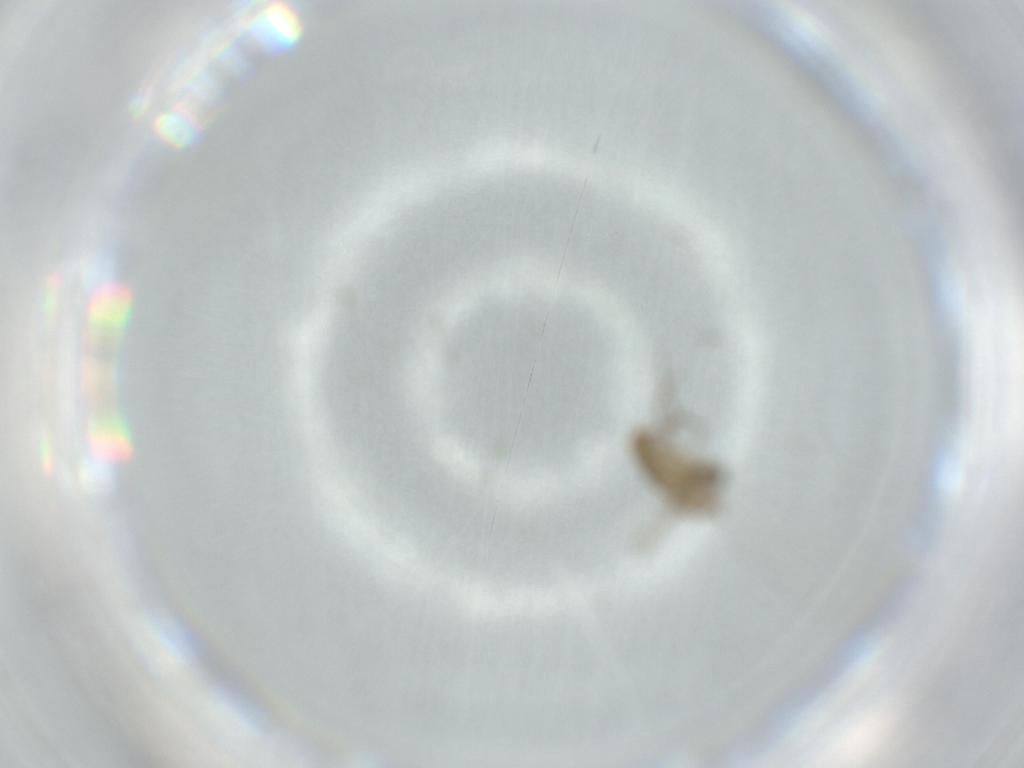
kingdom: Animalia
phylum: Arthropoda
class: Insecta
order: Diptera
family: Chironomidae
